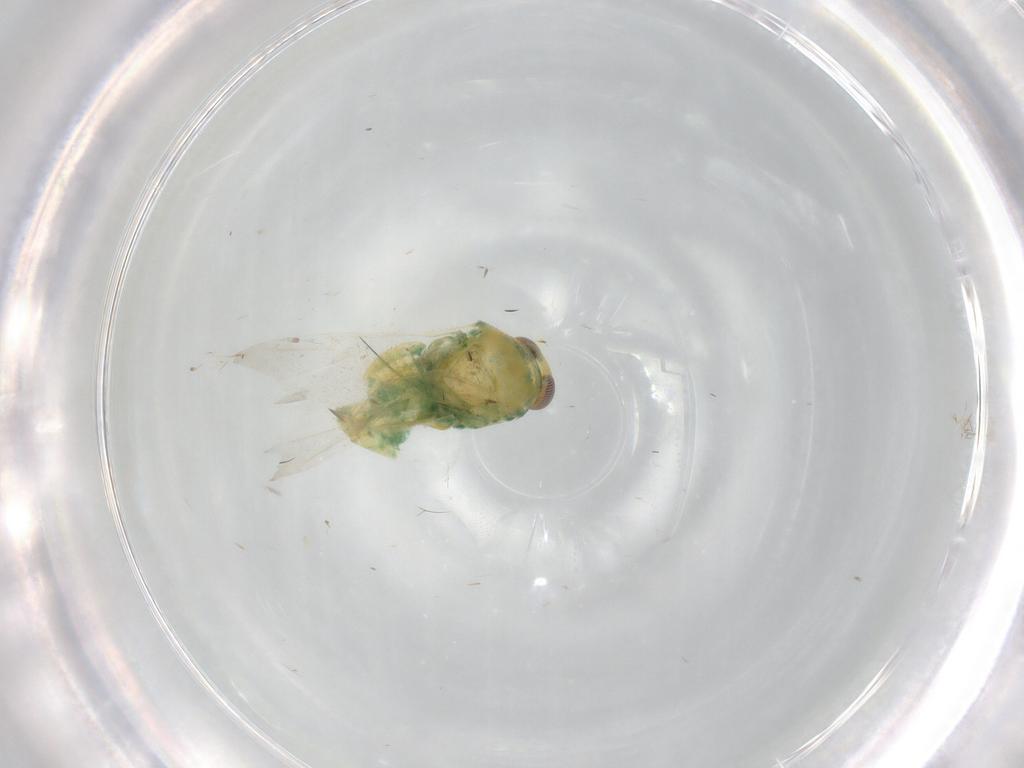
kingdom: Animalia
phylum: Arthropoda
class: Insecta
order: Hemiptera
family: Miridae
